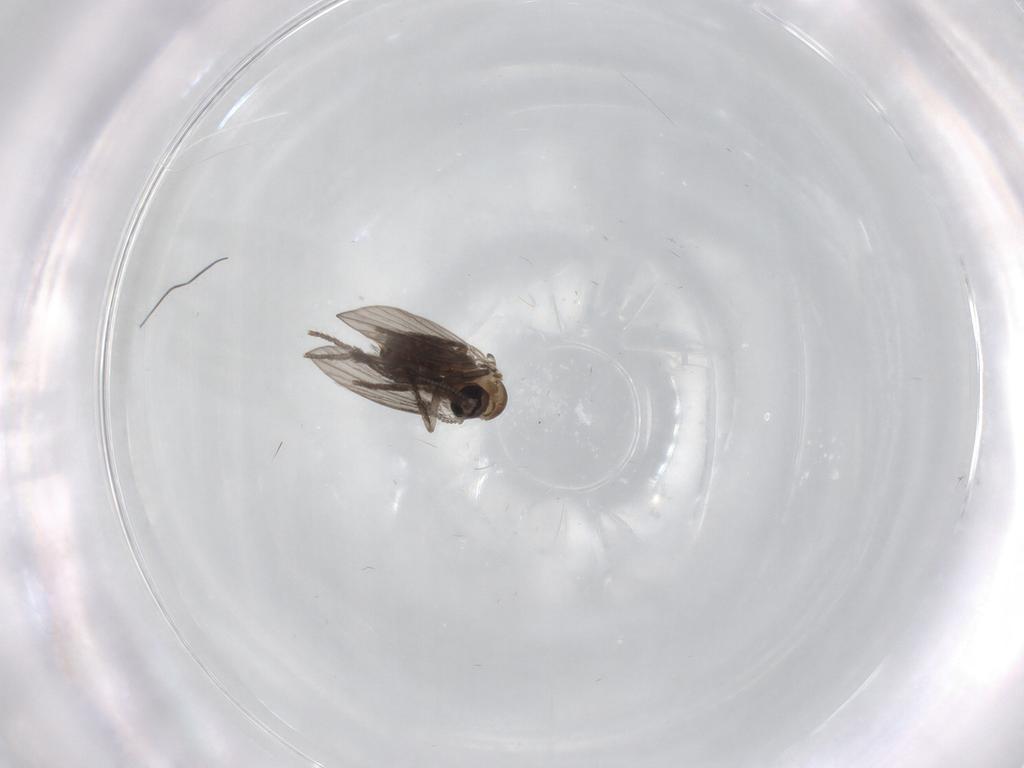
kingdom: Animalia
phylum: Arthropoda
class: Insecta
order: Diptera
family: Psychodidae
